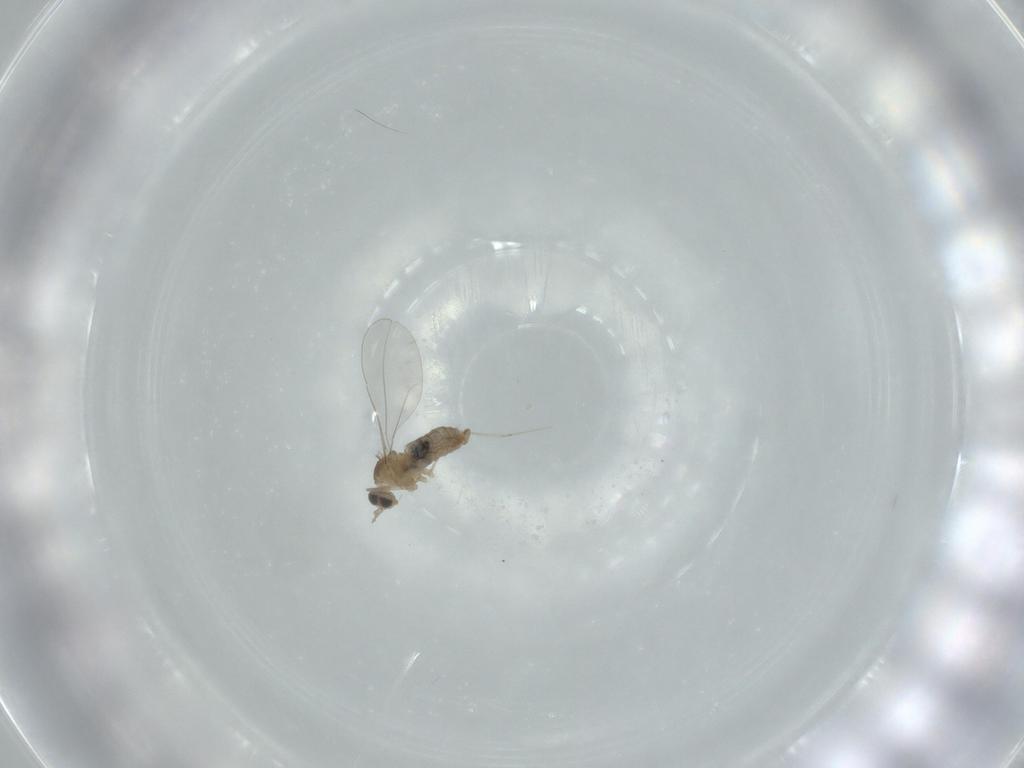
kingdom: Animalia
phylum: Arthropoda
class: Insecta
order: Diptera
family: Cecidomyiidae
